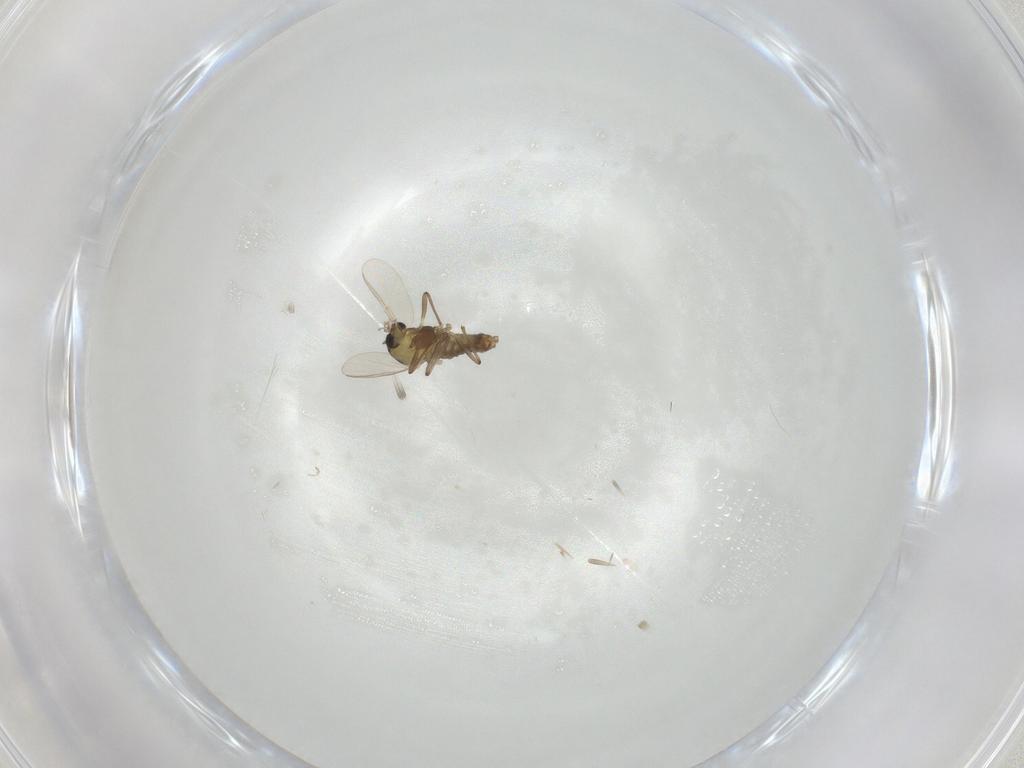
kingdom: Animalia
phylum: Arthropoda
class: Insecta
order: Diptera
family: Chironomidae
